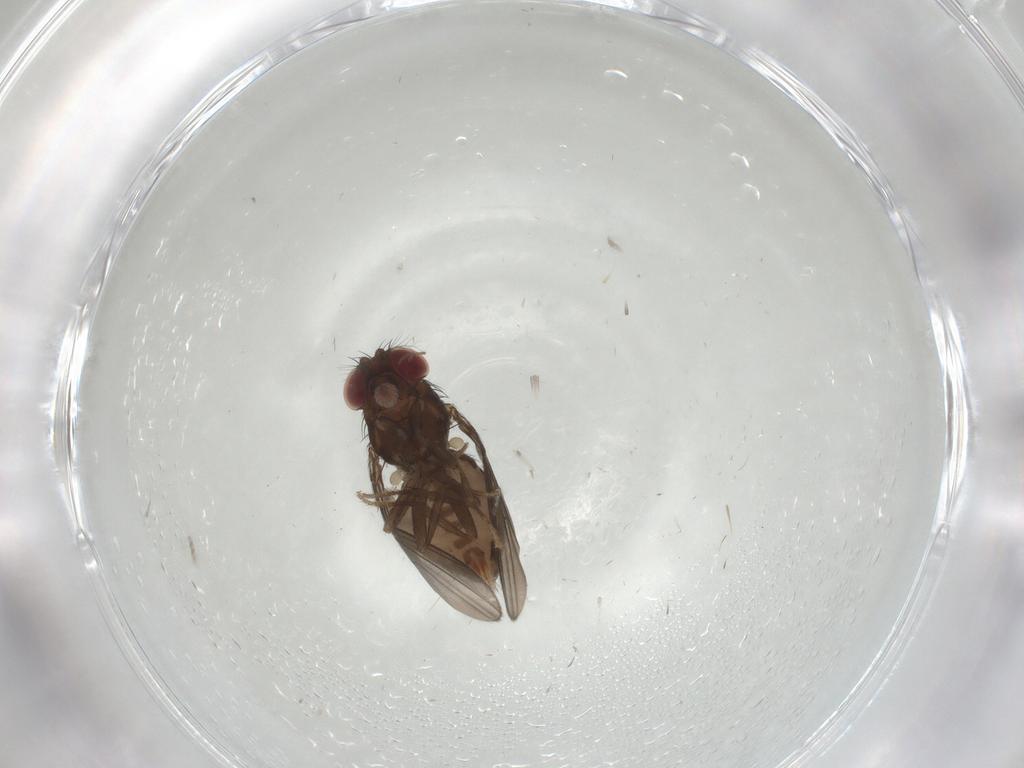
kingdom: Animalia
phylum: Arthropoda
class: Insecta
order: Diptera
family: Drosophilidae
